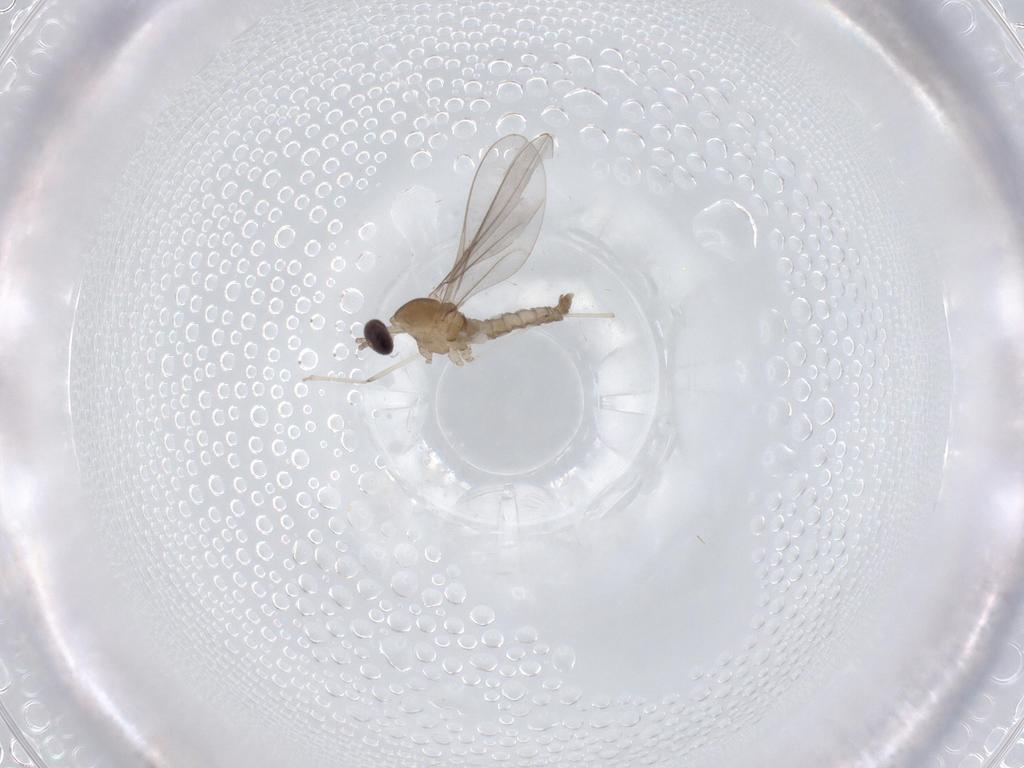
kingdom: Animalia
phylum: Arthropoda
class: Insecta
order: Diptera
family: Cecidomyiidae
